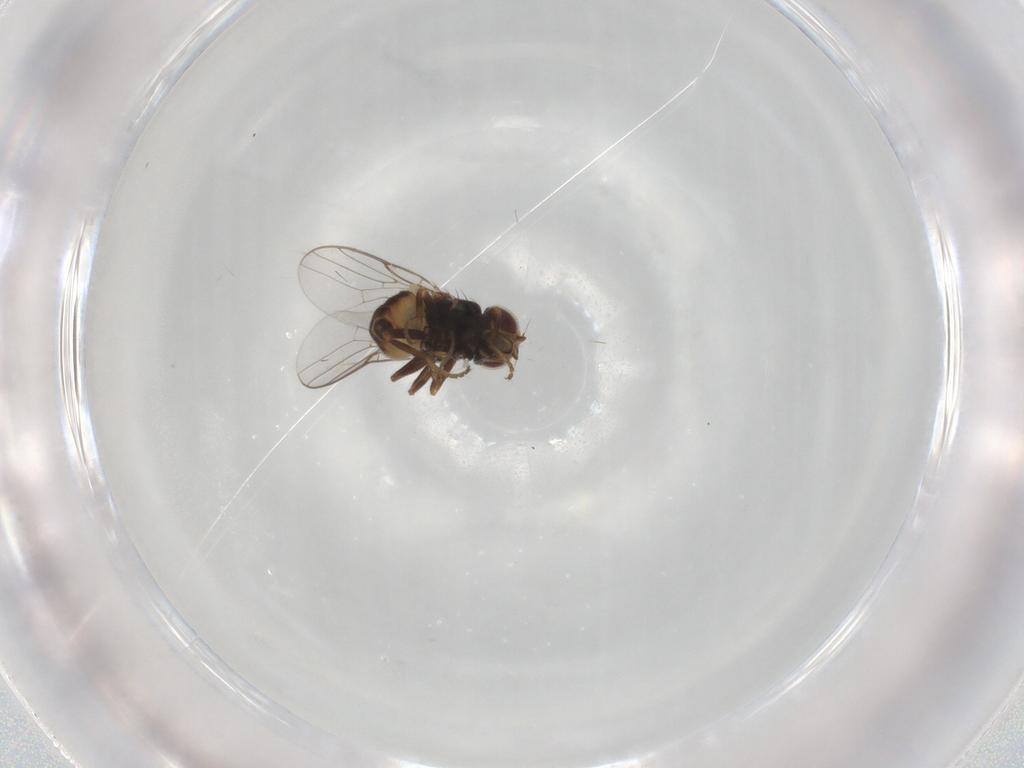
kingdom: Animalia
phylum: Arthropoda
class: Insecta
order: Diptera
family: Chloropidae
